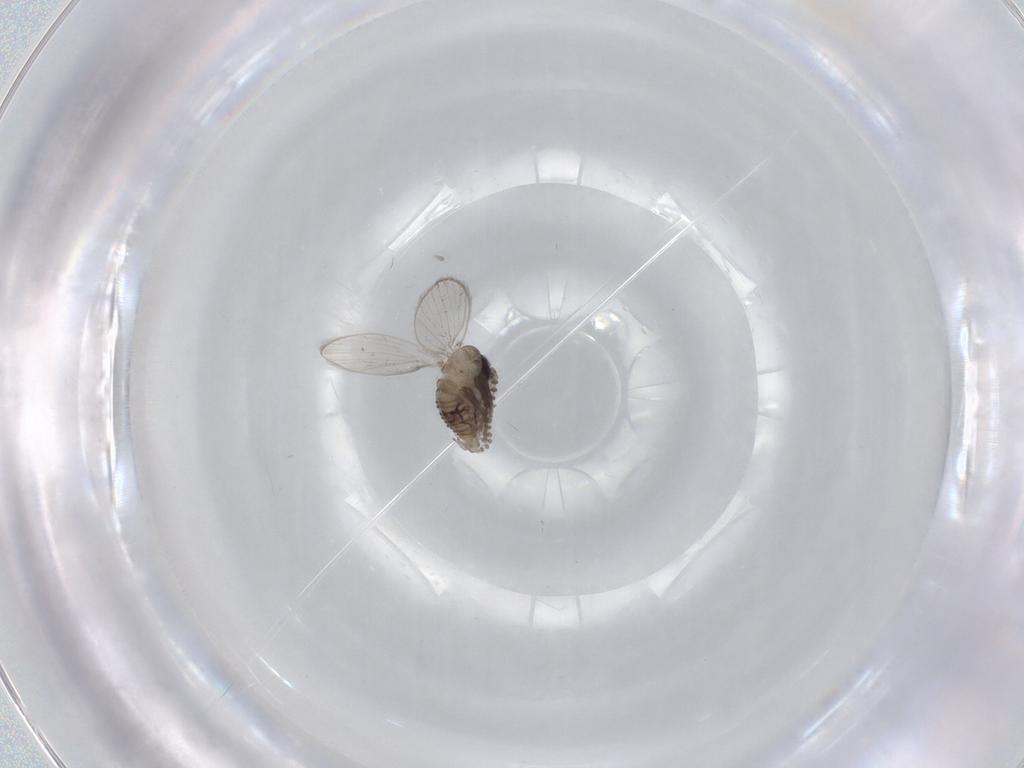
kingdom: Animalia
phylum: Arthropoda
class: Insecta
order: Diptera
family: Psychodidae
